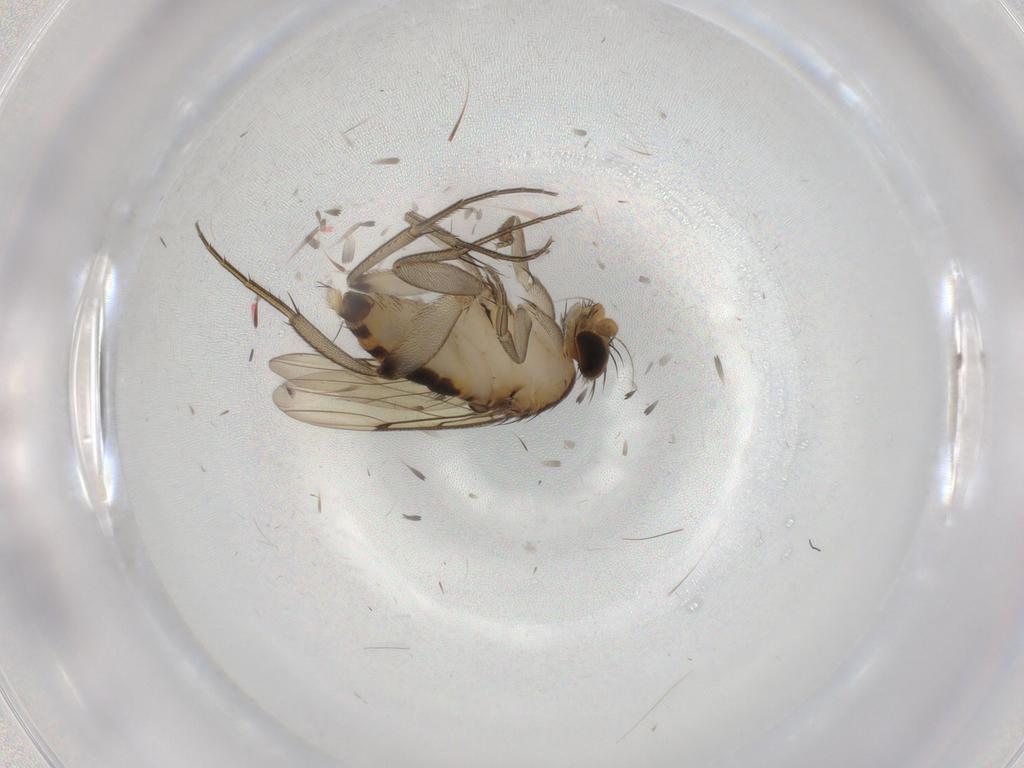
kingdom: Animalia
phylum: Arthropoda
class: Insecta
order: Diptera
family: Phoridae
